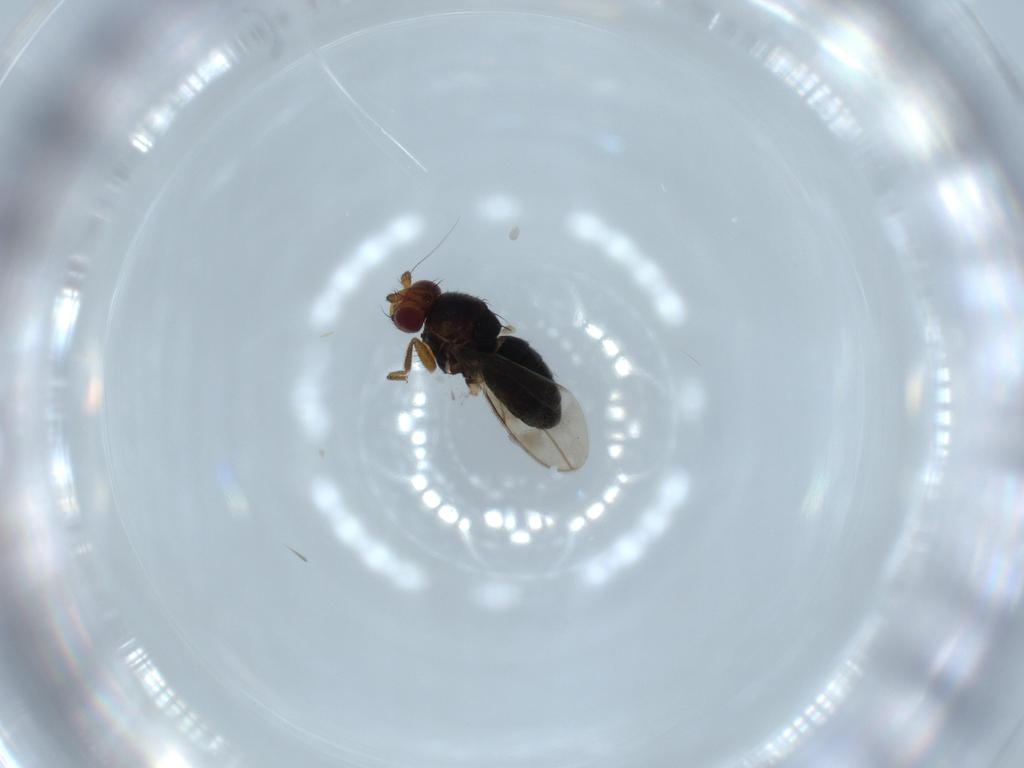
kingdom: Animalia
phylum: Arthropoda
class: Insecta
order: Diptera
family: Sphaeroceridae
